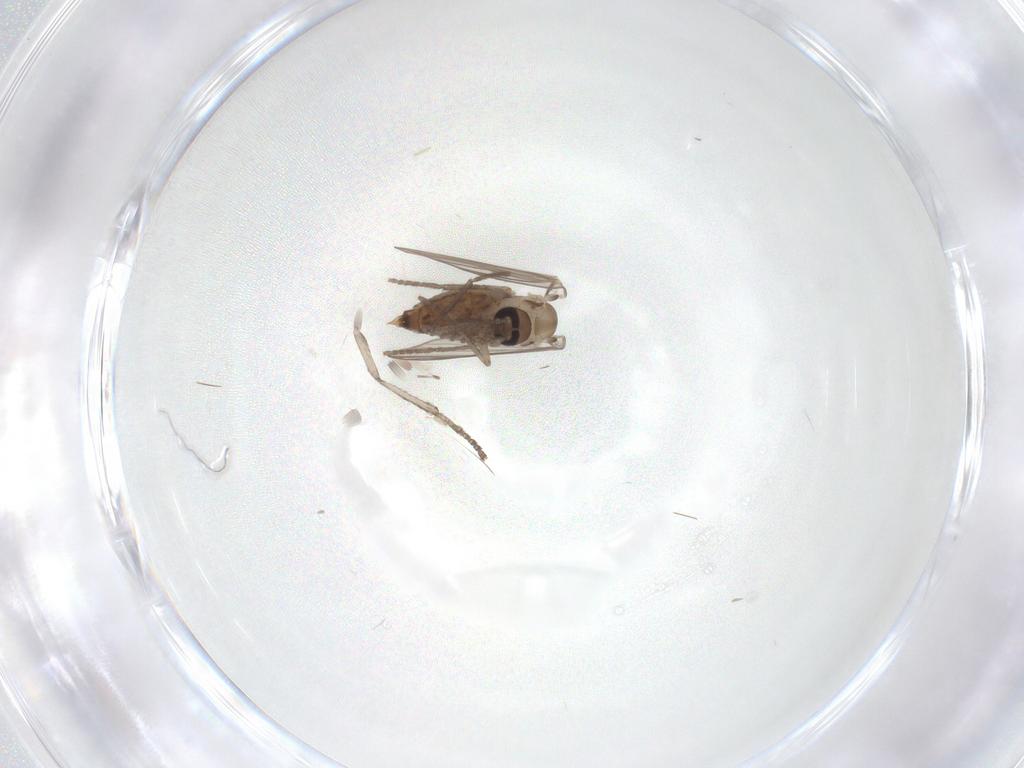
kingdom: Animalia
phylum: Arthropoda
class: Insecta
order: Diptera
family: Psychodidae
